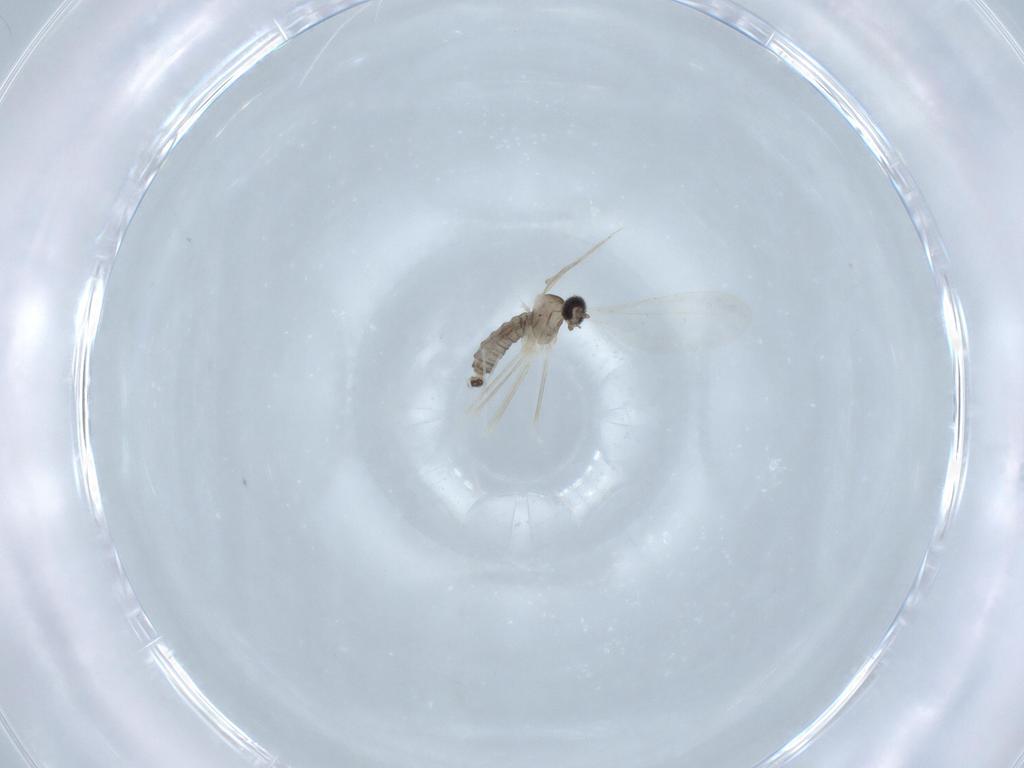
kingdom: Animalia
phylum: Arthropoda
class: Insecta
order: Diptera
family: Cecidomyiidae
